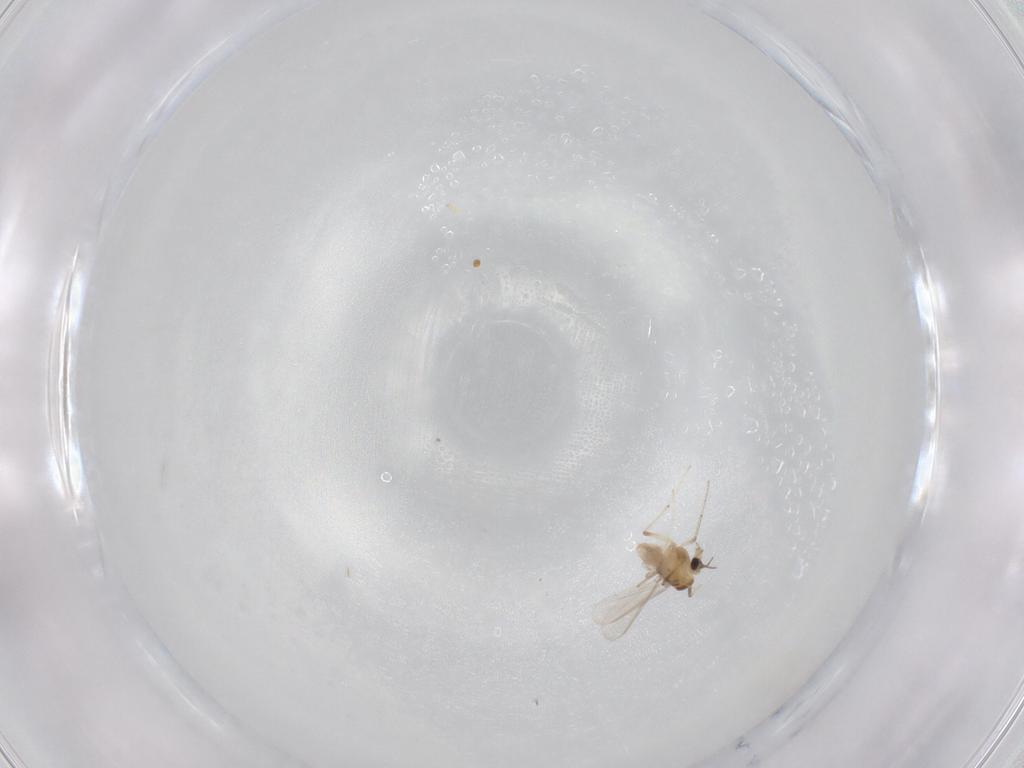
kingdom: Animalia
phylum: Arthropoda
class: Insecta
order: Diptera
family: Chironomidae
